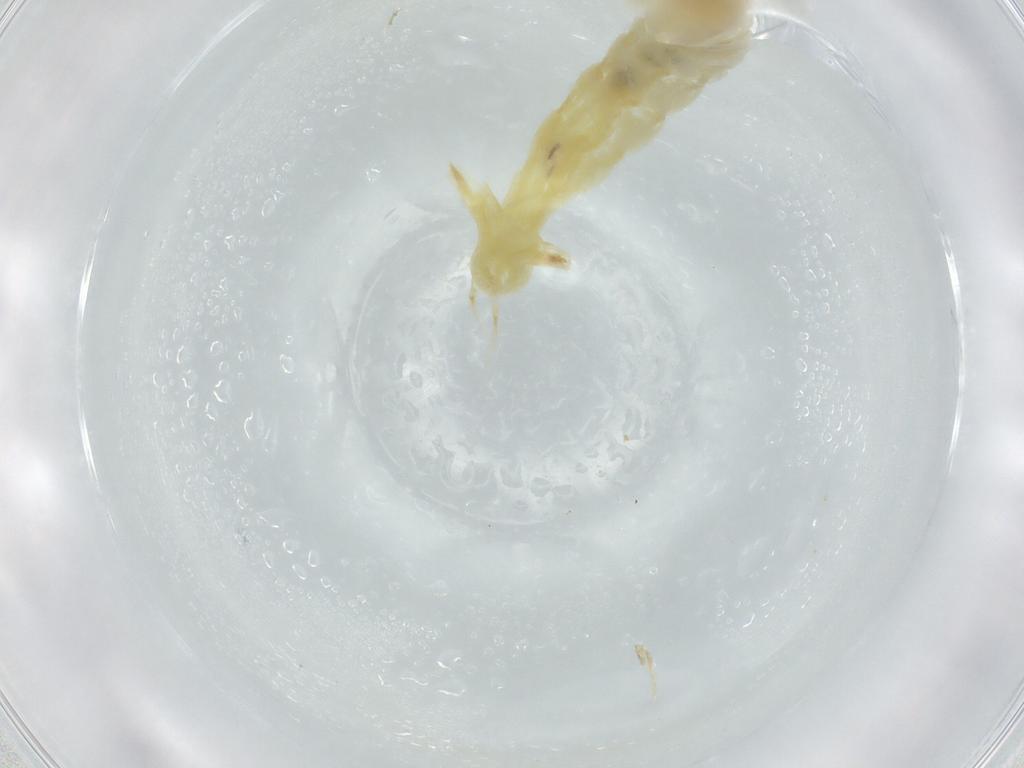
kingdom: Animalia
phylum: Arthropoda
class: Insecta
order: Diptera
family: Chironomidae
